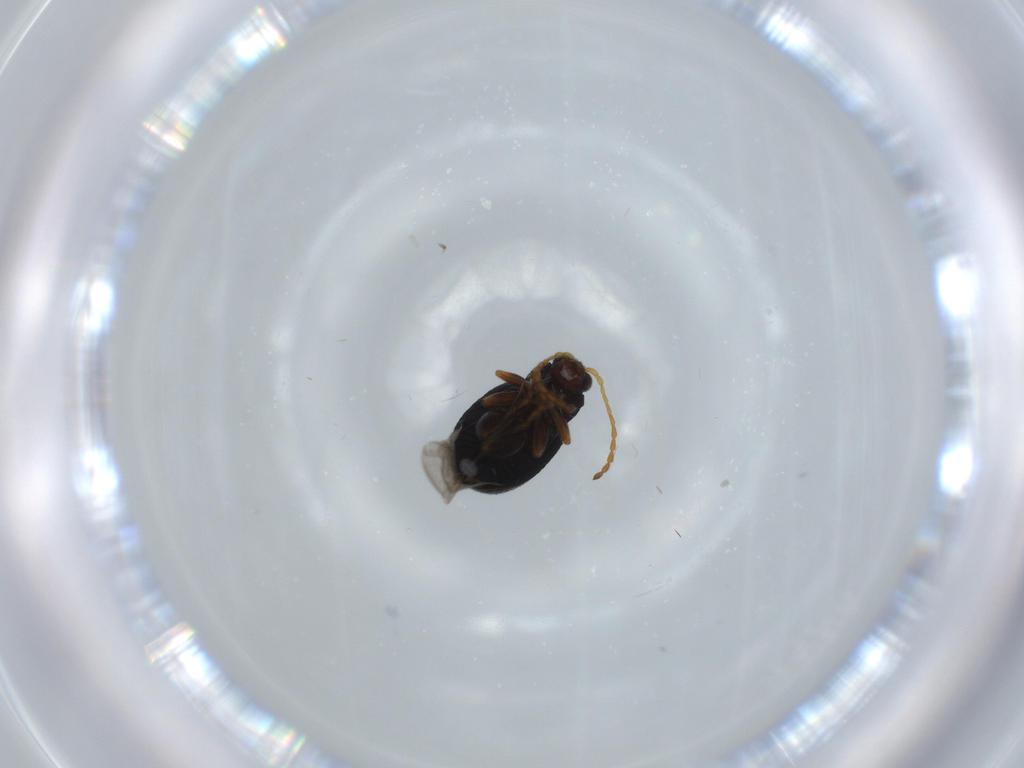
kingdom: Animalia
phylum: Arthropoda
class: Insecta
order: Coleoptera
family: Chrysomelidae
